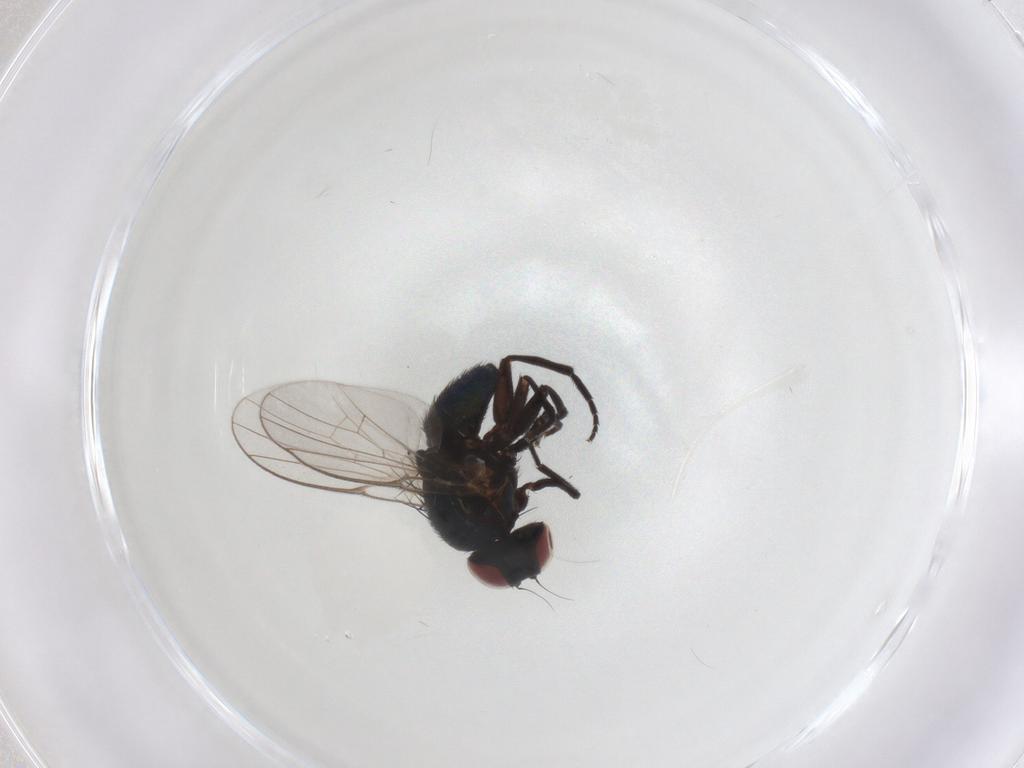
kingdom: Animalia
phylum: Arthropoda
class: Insecta
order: Diptera
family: Agromyzidae
